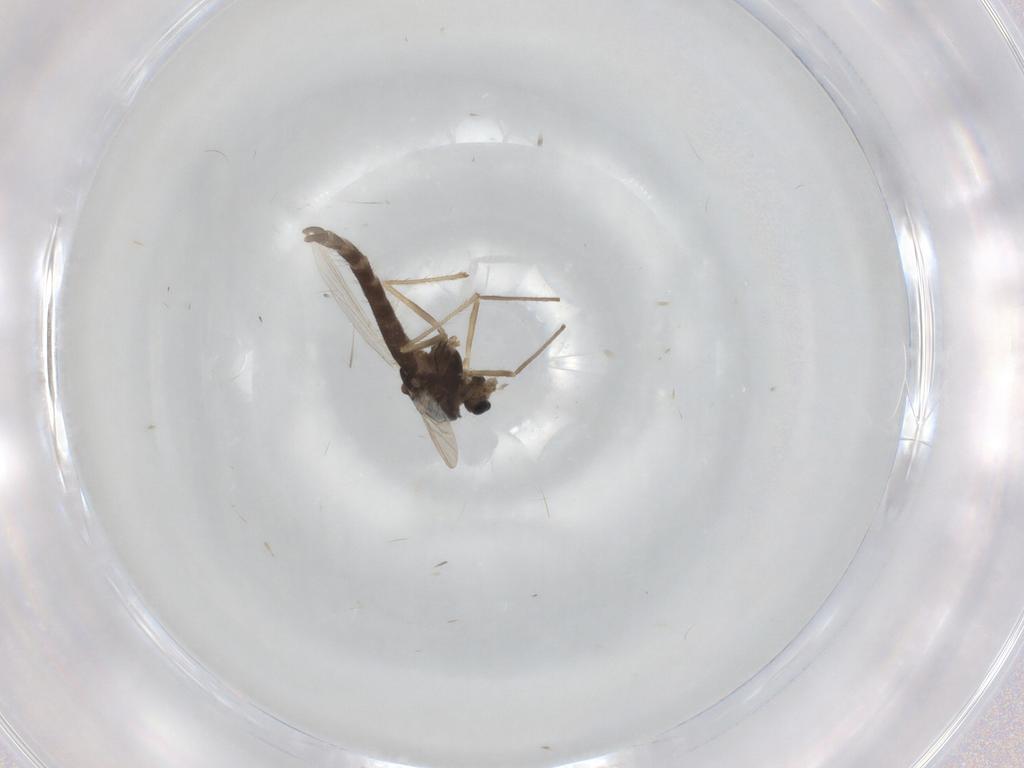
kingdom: Animalia
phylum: Arthropoda
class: Insecta
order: Diptera
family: Chironomidae
